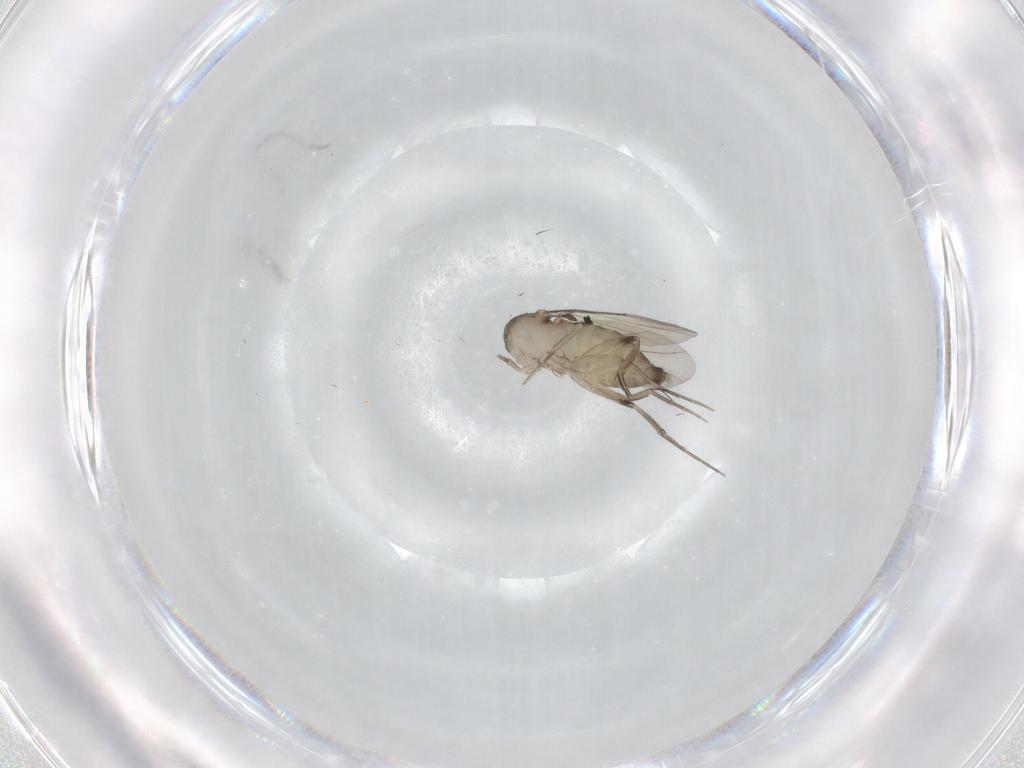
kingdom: Animalia
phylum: Arthropoda
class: Insecta
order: Diptera
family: Phoridae
